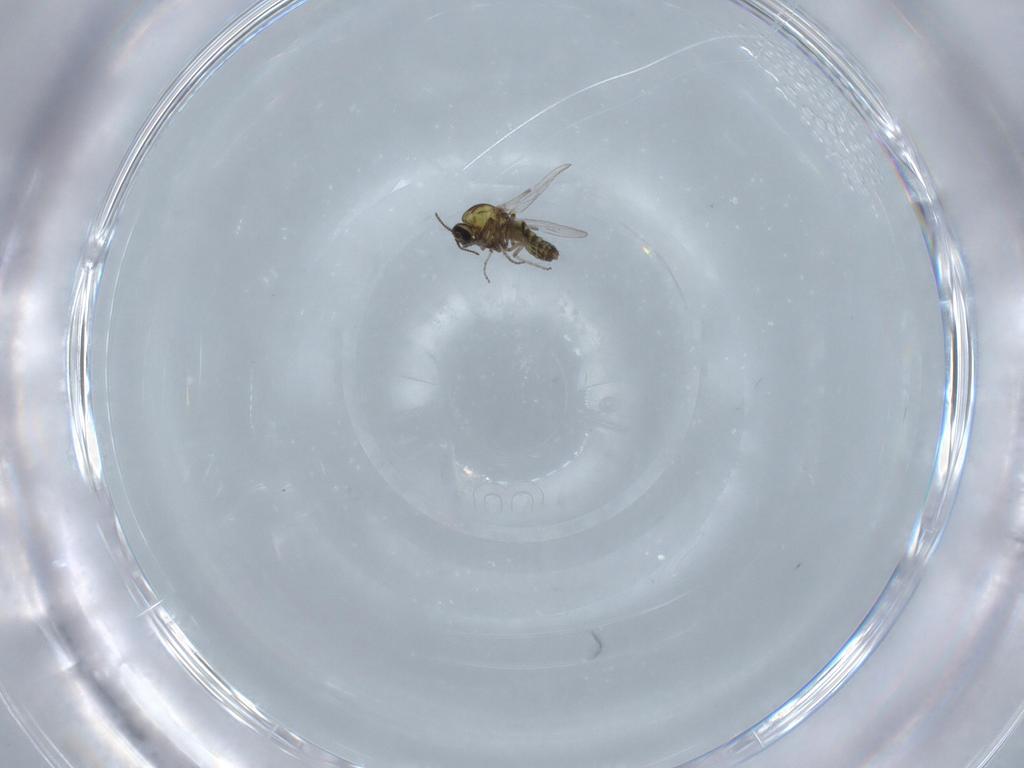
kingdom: Animalia
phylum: Arthropoda
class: Insecta
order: Diptera
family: Ceratopogonidae
